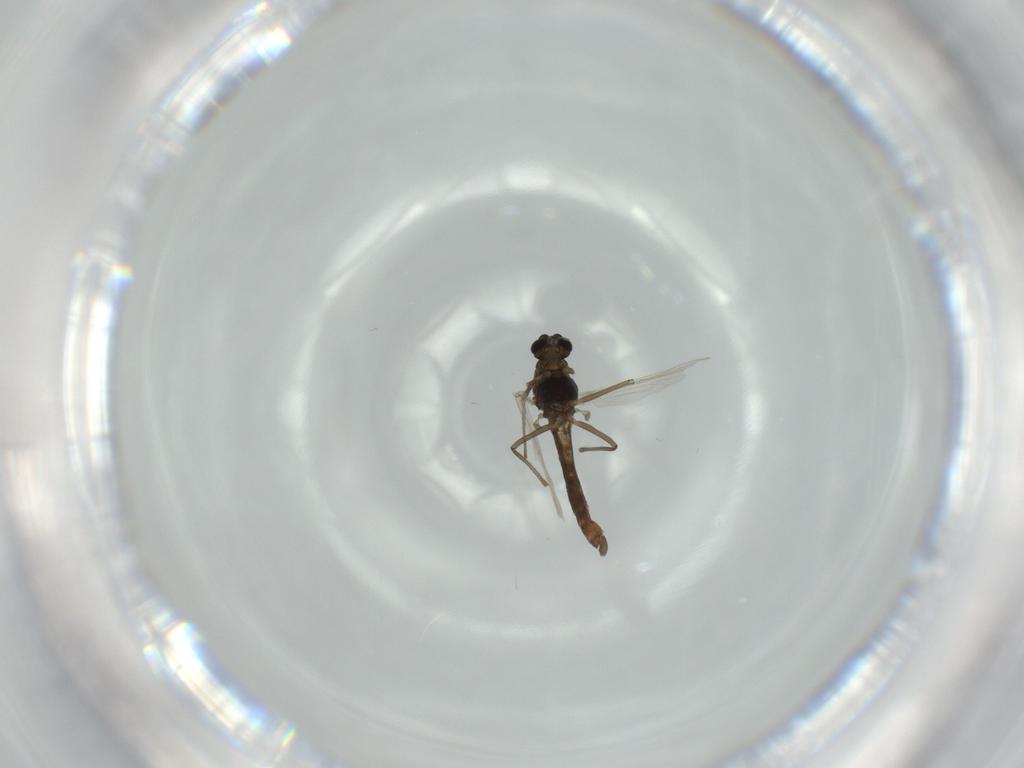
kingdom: Animalia
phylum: Arthropoda
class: Insecta
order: Diptera
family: Chironomidae
